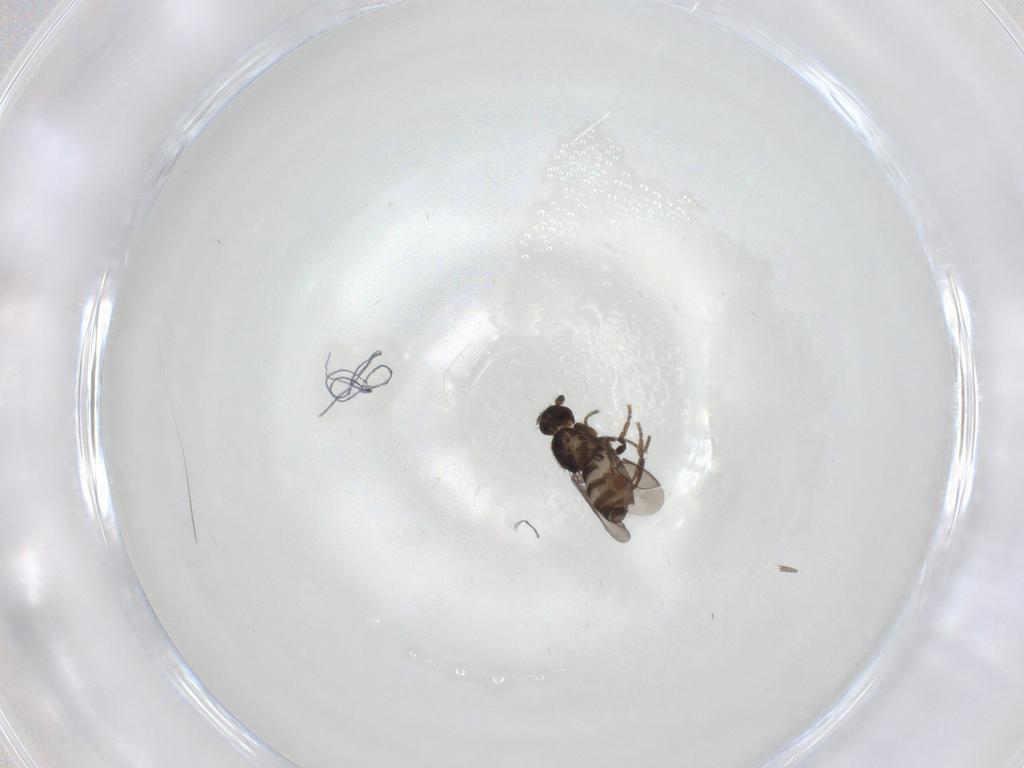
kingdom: Animalia
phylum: Arthropoda
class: Insecta
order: Diptera
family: Sphaeroceridae
